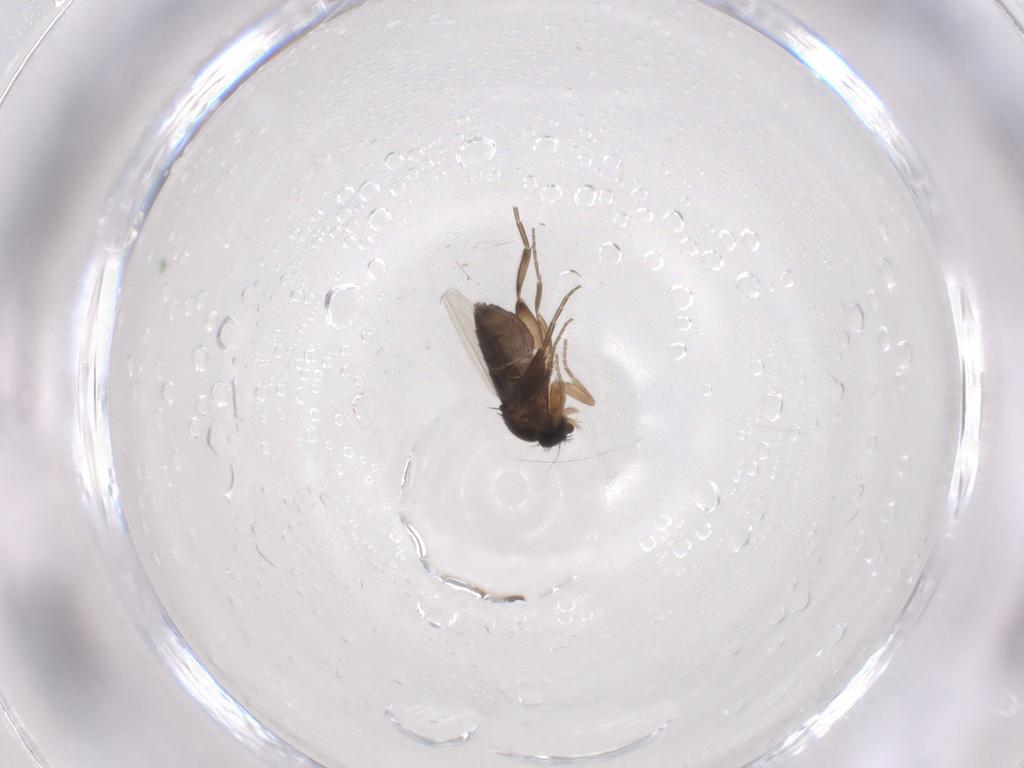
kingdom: Animalia
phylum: Arthropoda
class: Insecta
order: Diptera
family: Phoridae
